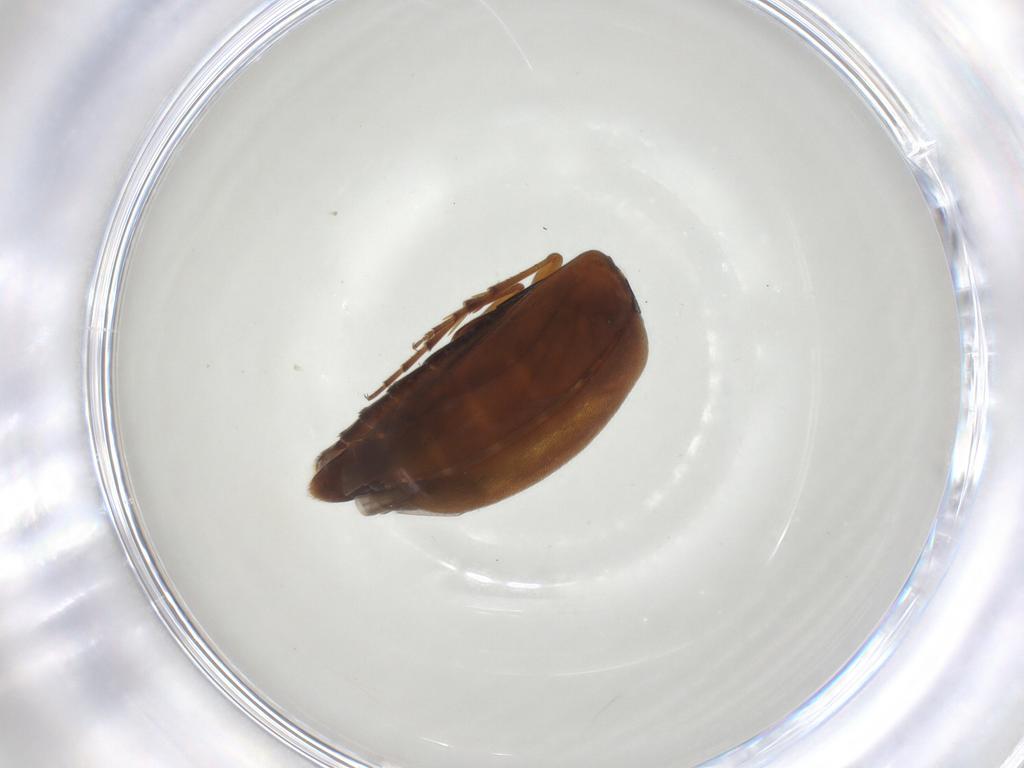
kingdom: Animalia
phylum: Arthropoda
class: Insecta
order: Coleoptera
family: Scraptiidae
